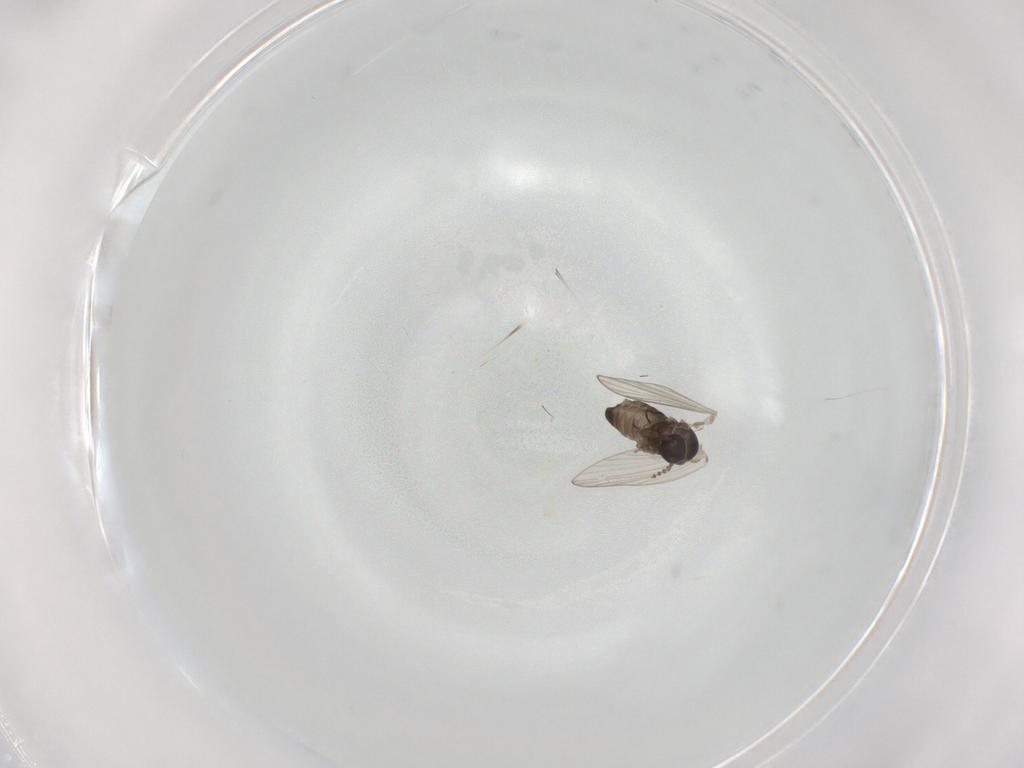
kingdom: Animalia
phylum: Arthropoda
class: Insecta
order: Diptera
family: Psychodidae
